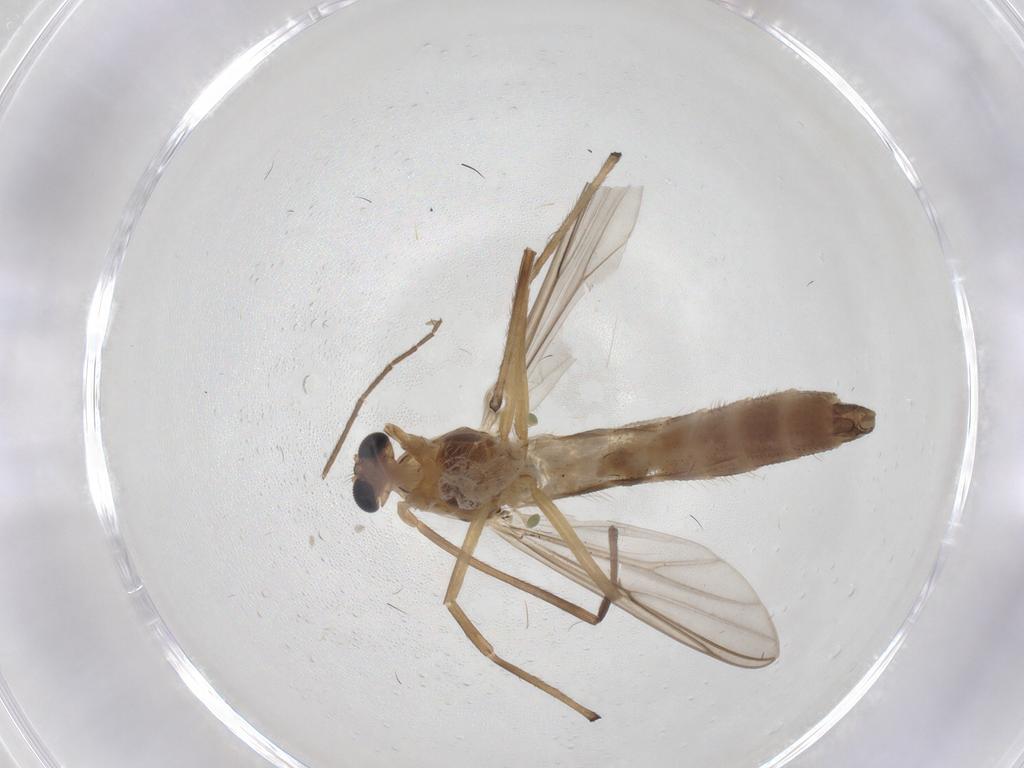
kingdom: Animalia
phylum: Arthropoda
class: Insecta
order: Diptera
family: Chironomidae
